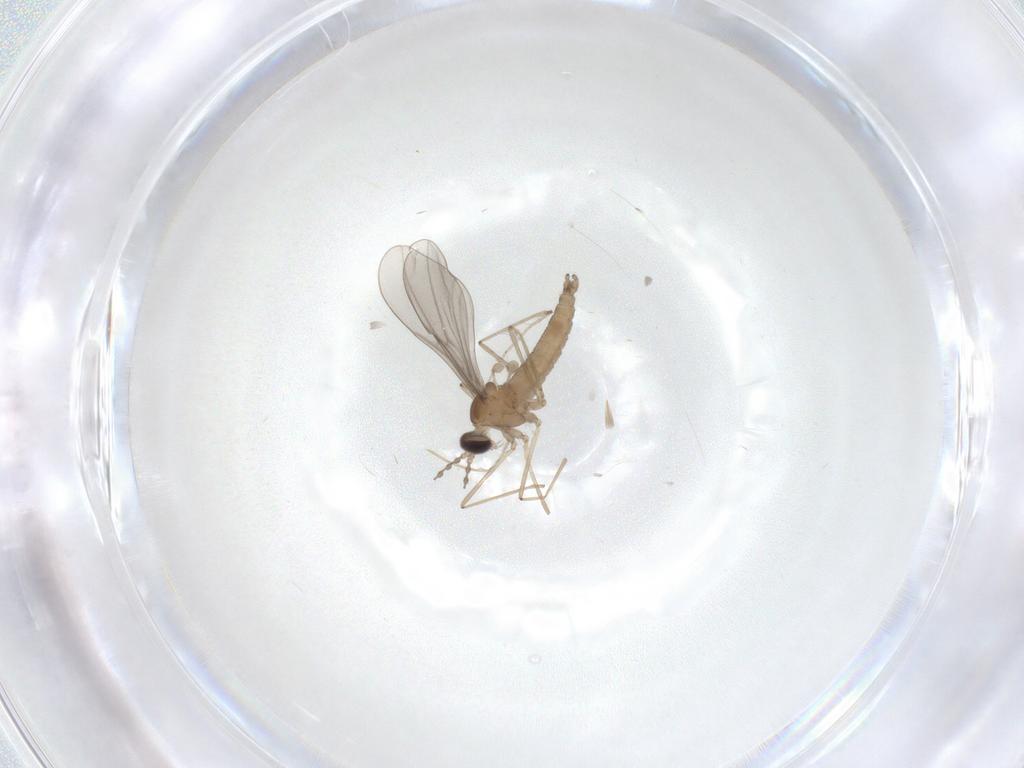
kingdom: Animalia
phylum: Arthropoda
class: Insecta
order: Diptera
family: Cecidomyiidae
